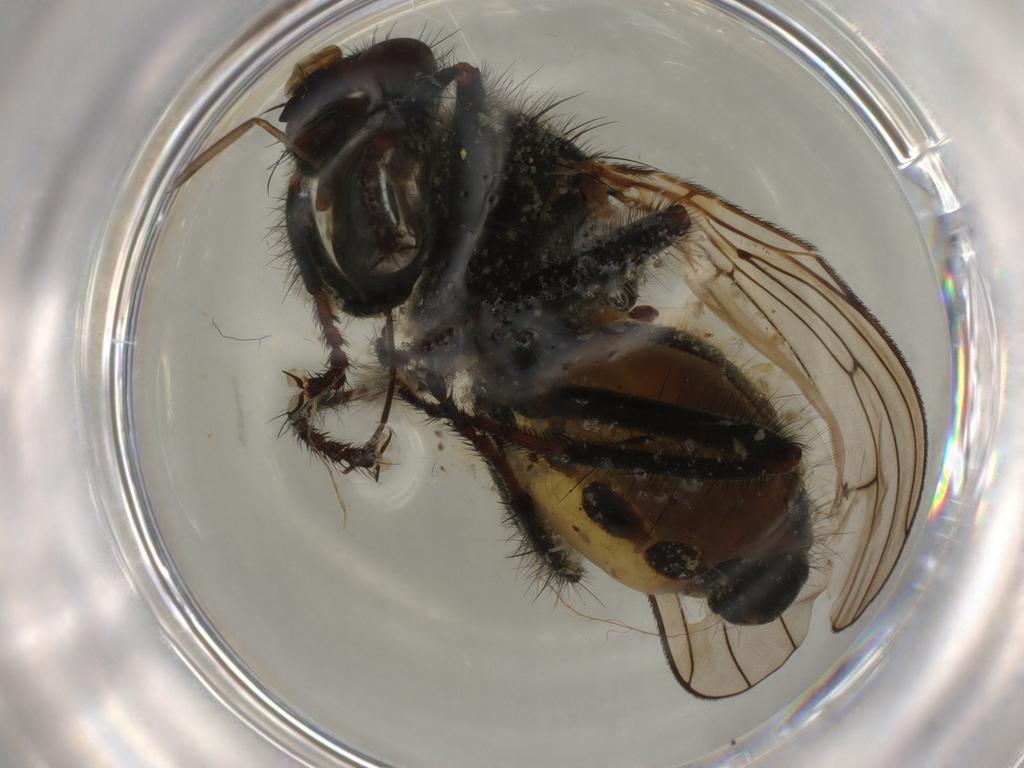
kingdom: Animalia
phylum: Arthropoda
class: Insecta
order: Diptera
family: Scathophagidae
